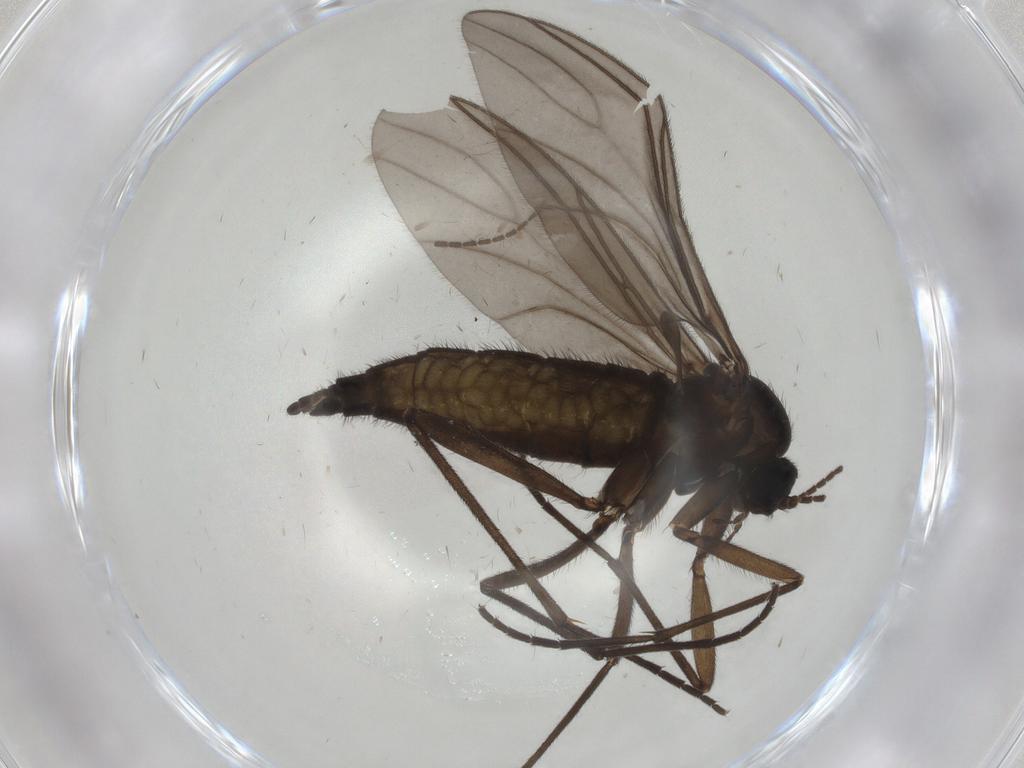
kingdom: Animalia
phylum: Arthropoda
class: Insecta
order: Diptera
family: Sciaridae
